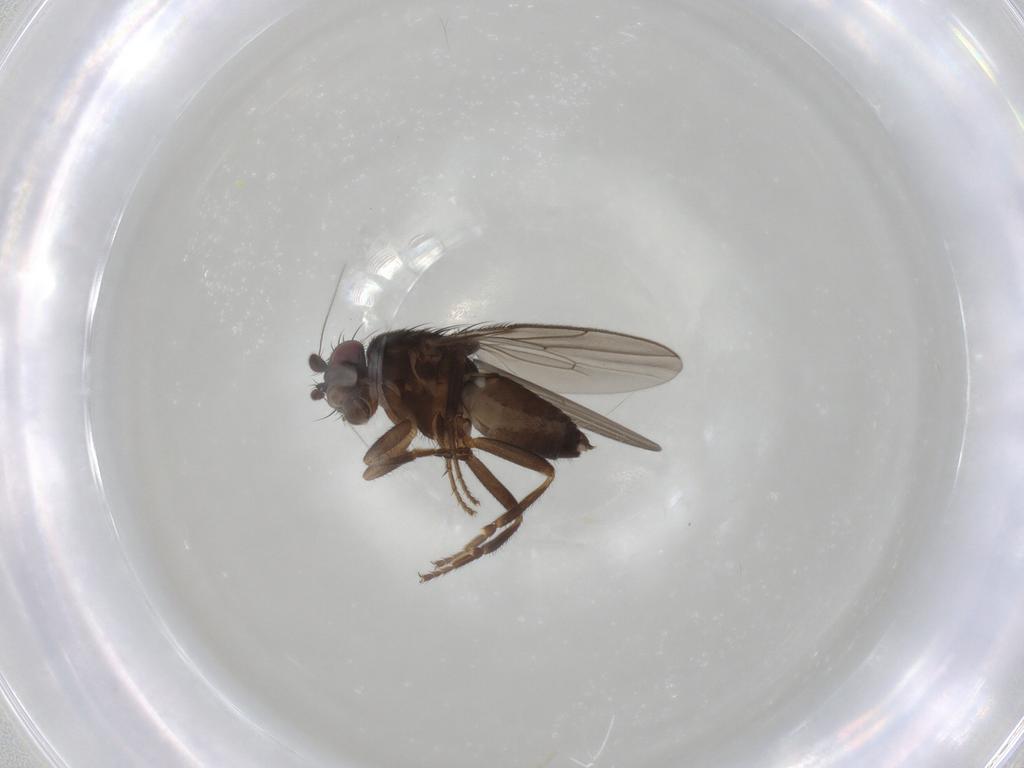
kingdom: Animalia
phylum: Arthropoda
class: Insecta
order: Diptera
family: Sphaeroceridae
